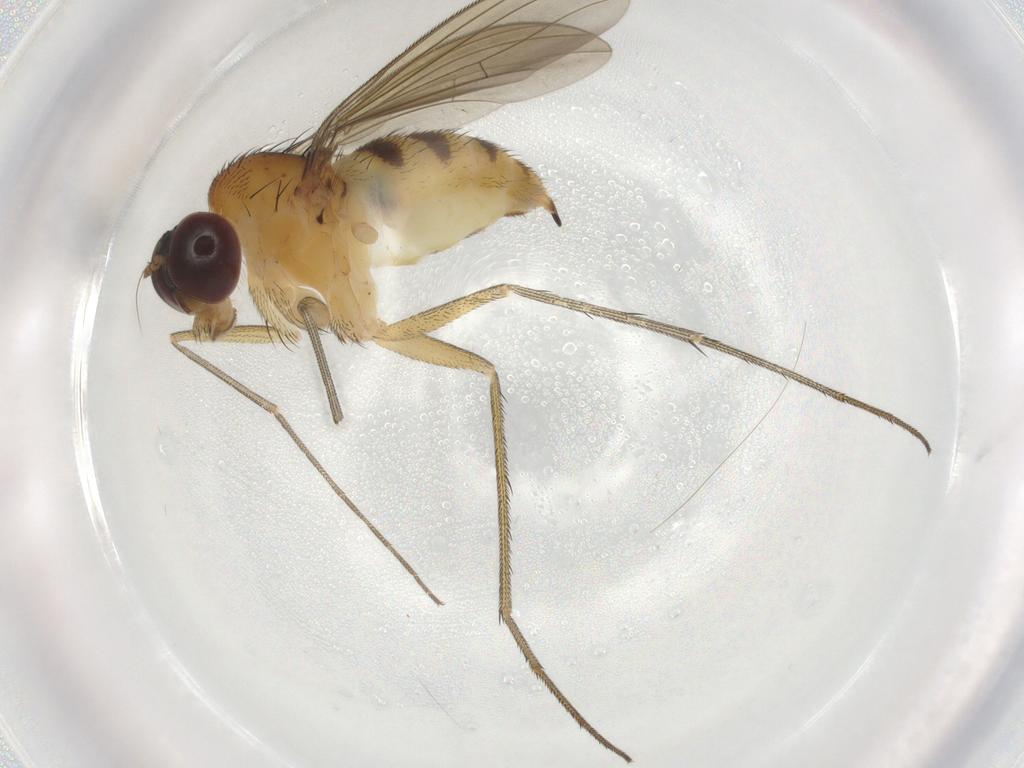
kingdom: Animalia
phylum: Arthropoda
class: Insecta
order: Diptera
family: Dolichopodidae
